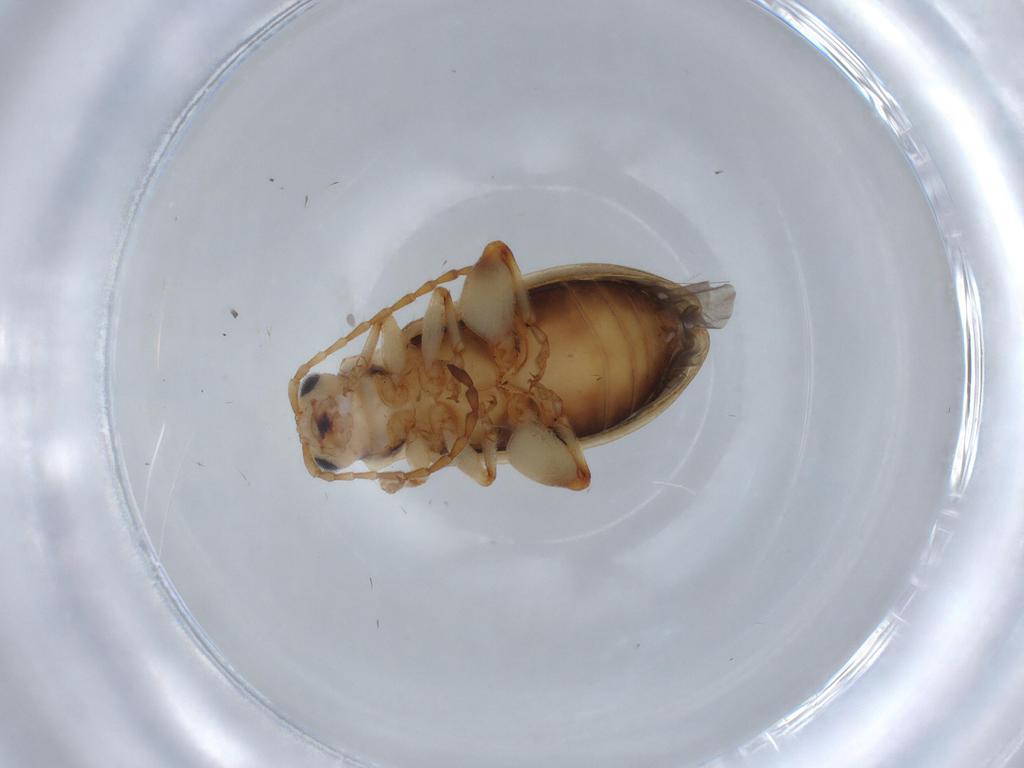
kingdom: Animalia
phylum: Arthropoda
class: Insecta
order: Coleoptera
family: Chrysomelidae
